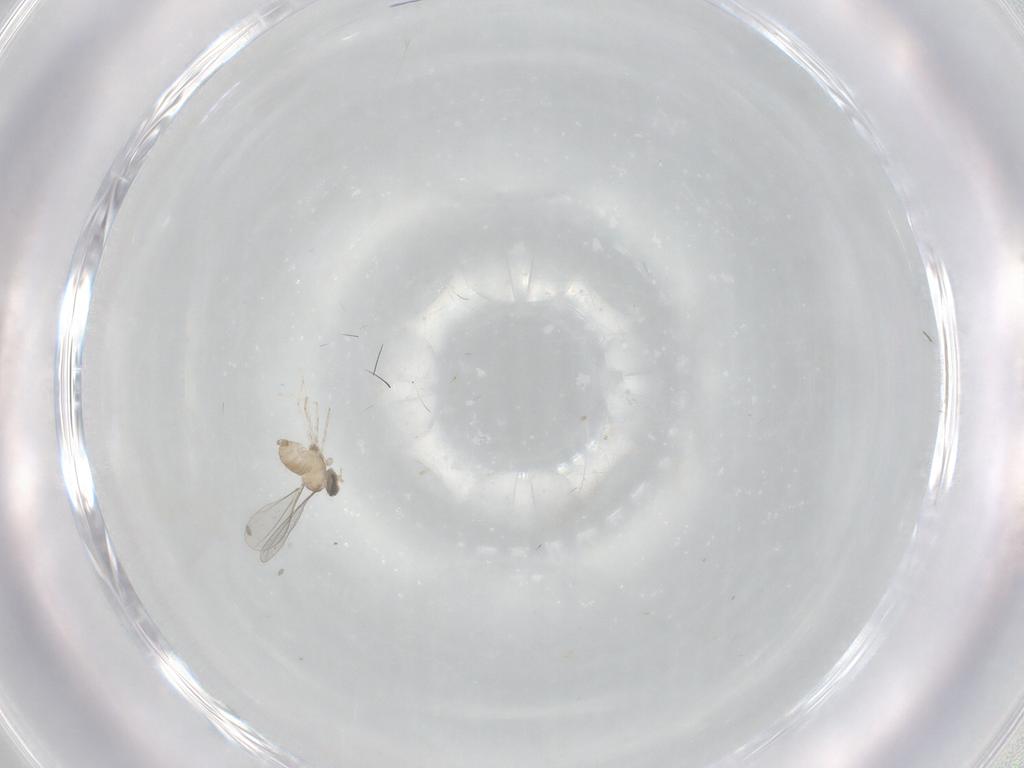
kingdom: Animalia
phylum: Arthropoda
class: Insecta
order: Diptera
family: Cecidomyiidae
